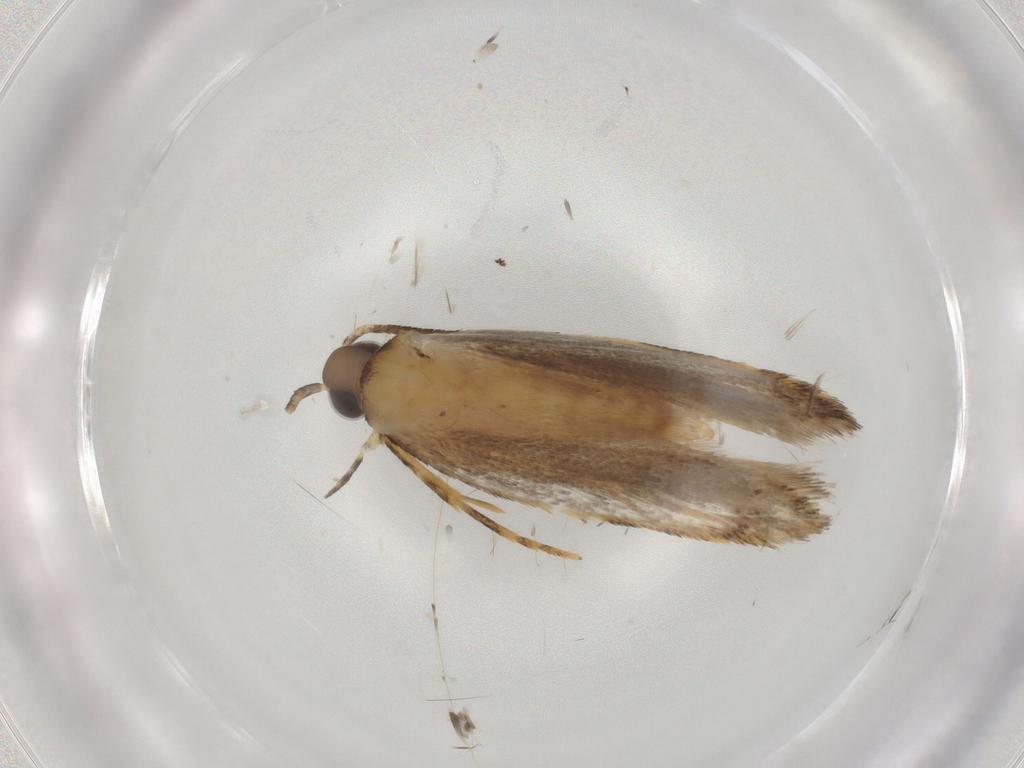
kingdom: Animalia
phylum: Arthropoda
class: Insecta
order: Lepidoptera
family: Autostichidae
